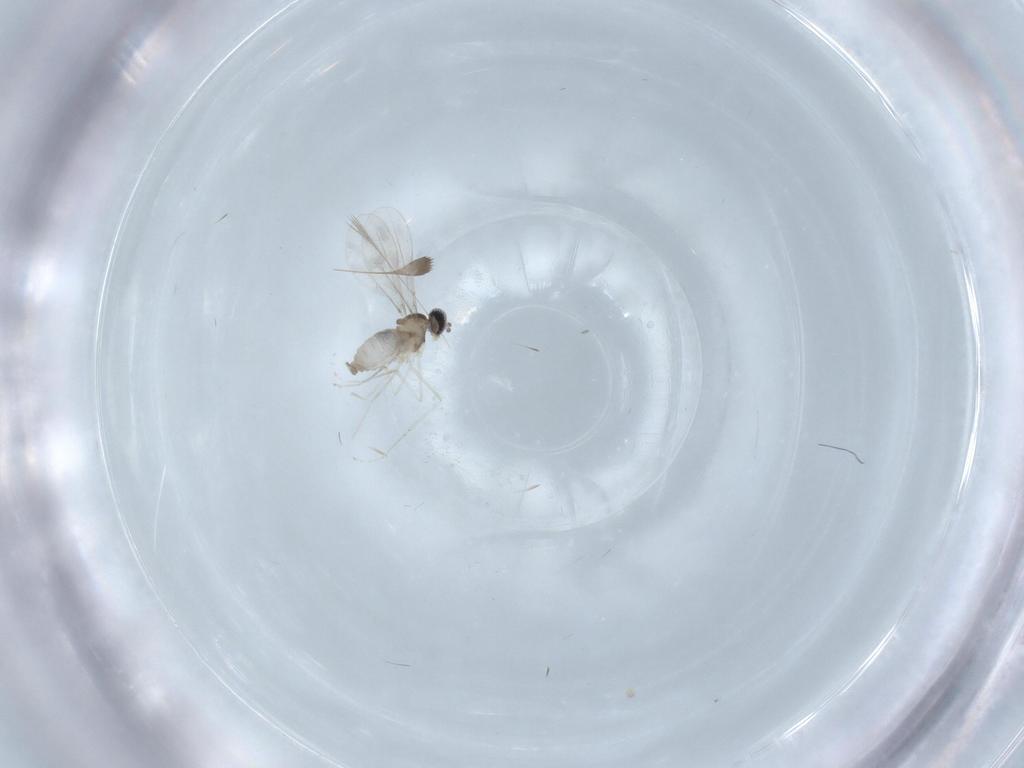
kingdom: Animalia
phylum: Arthropoda
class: Insecta
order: Diptera
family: Cecidomyiidae
